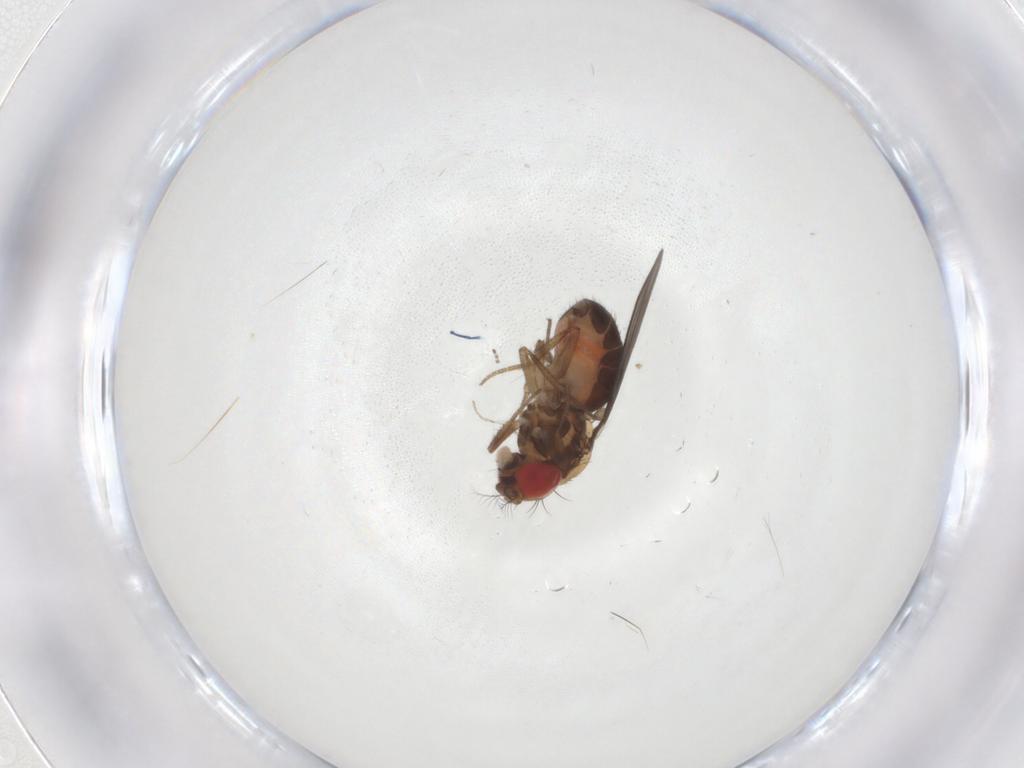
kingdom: Animalia
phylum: Arthropoda
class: Insecta
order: Diptera
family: Drosophilidae
